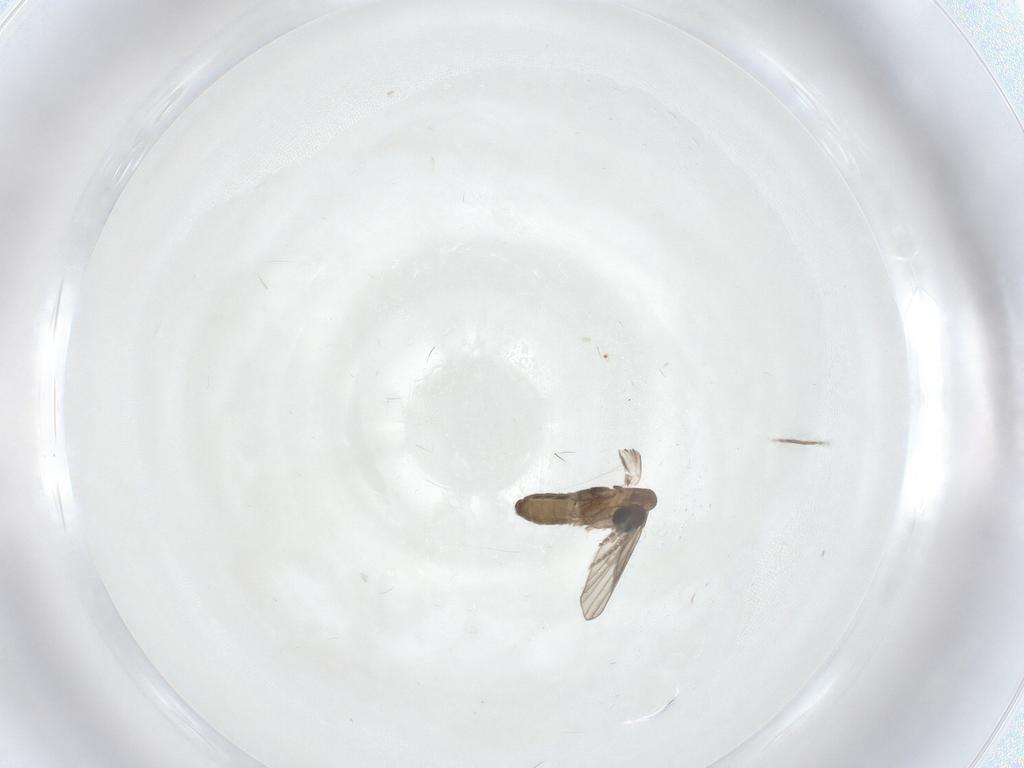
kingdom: Animalia
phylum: Arthropoda
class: Insecta
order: Diptera
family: Psychodidae
